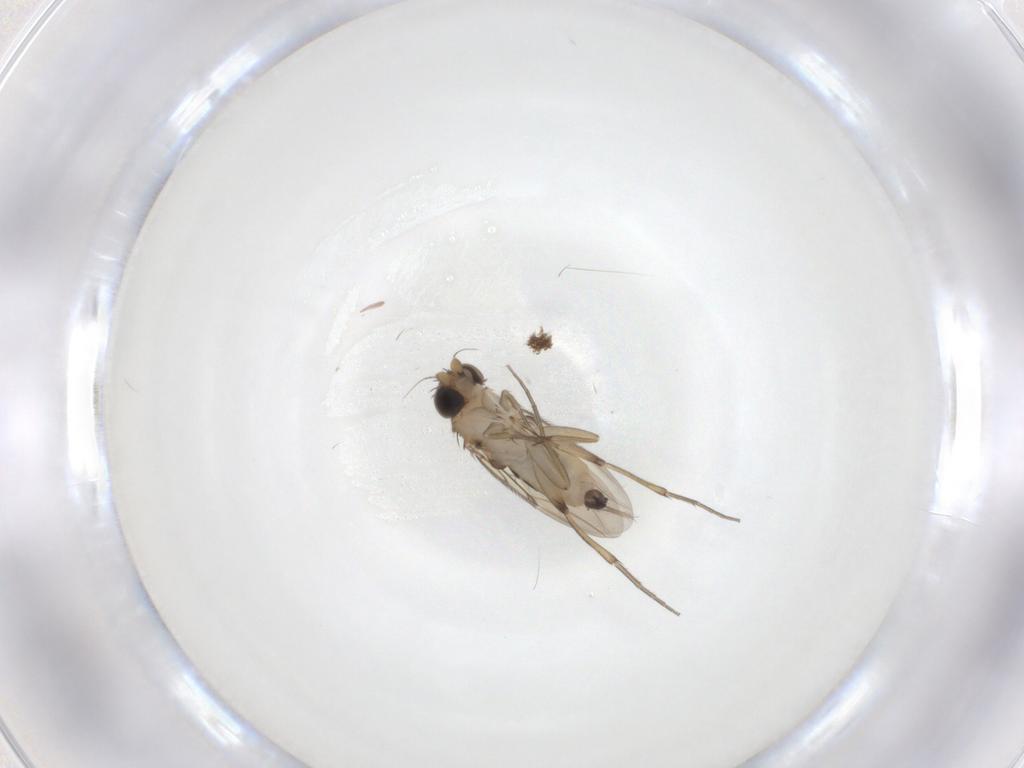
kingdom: Animalia
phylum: Arthropoda
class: Insecta
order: Diptera
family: Phoridae
